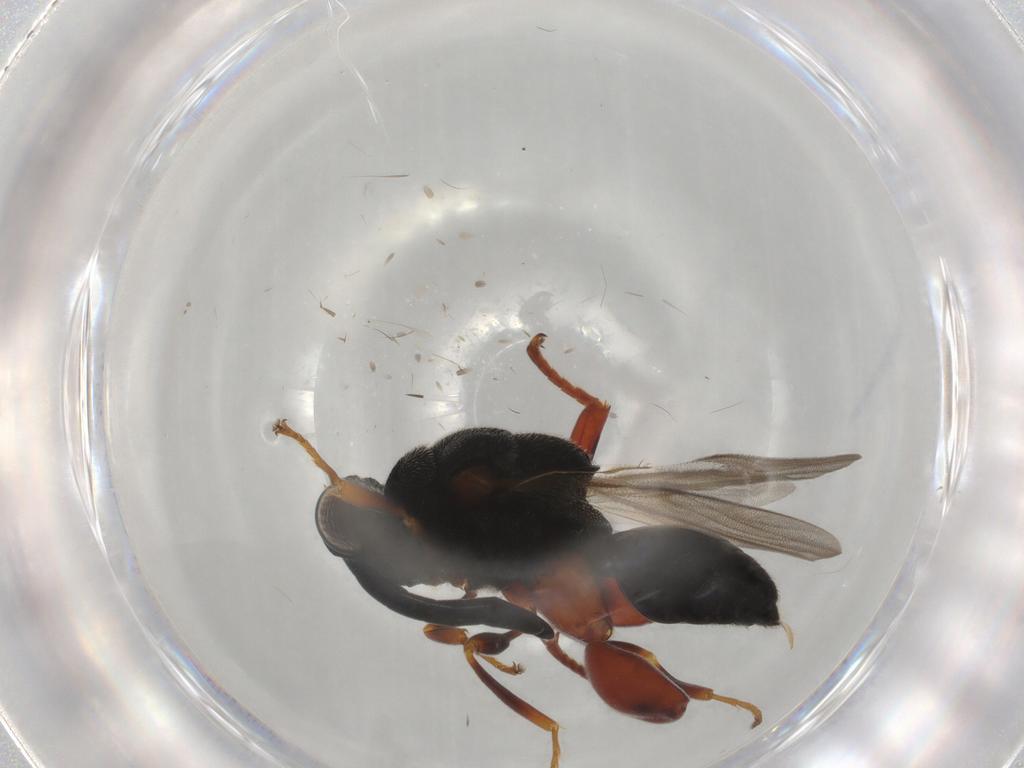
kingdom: Animalia
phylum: Arthropoda
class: Insecta
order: Hymenoptera
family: Chalcididae
